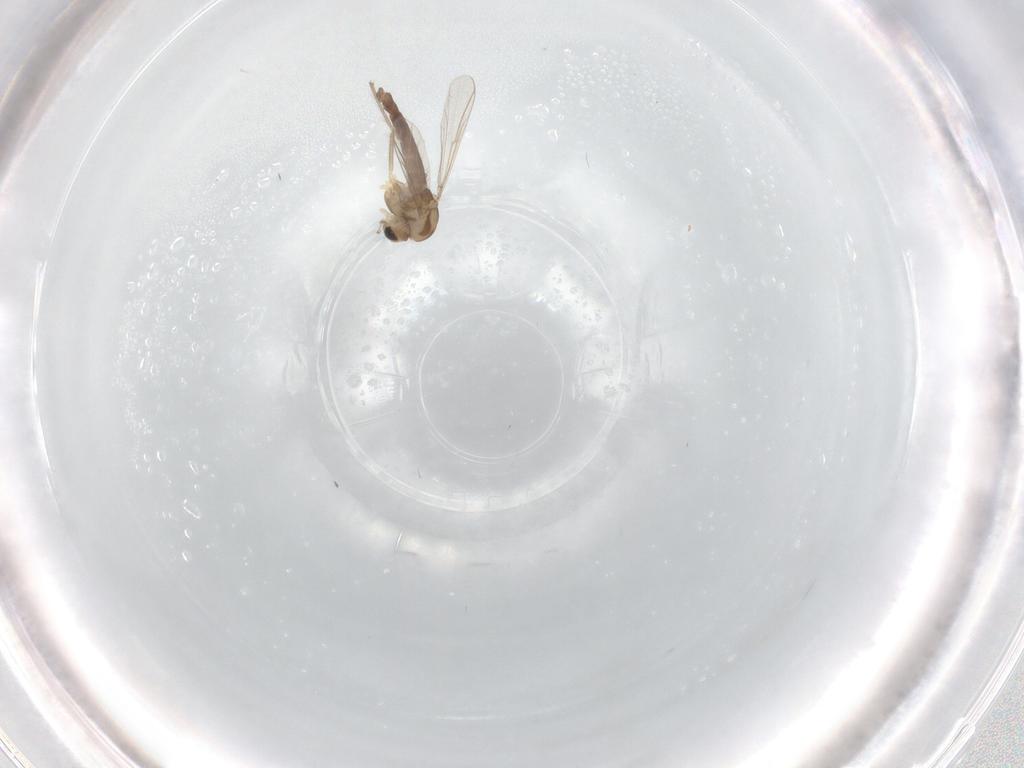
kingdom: Animalia
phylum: Arthropoda
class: Insecta
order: Diptera
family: Chironomidae
